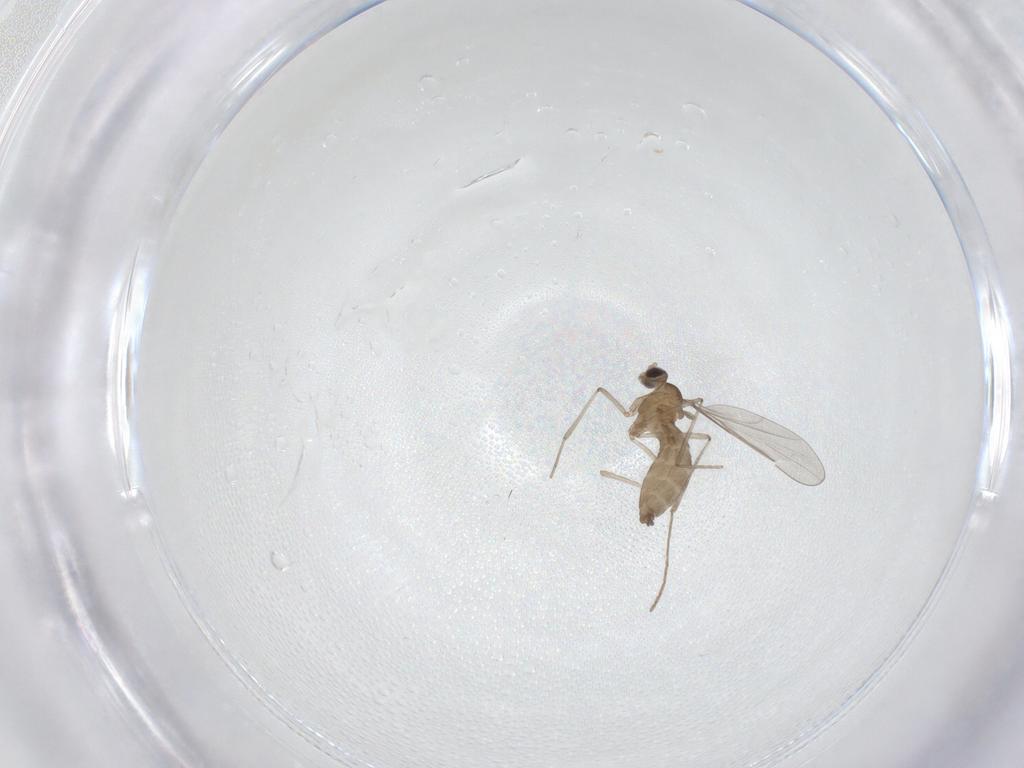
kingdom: Animalia
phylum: Arthropoda
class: Insecta
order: Diptera
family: Cecidomyiidae
